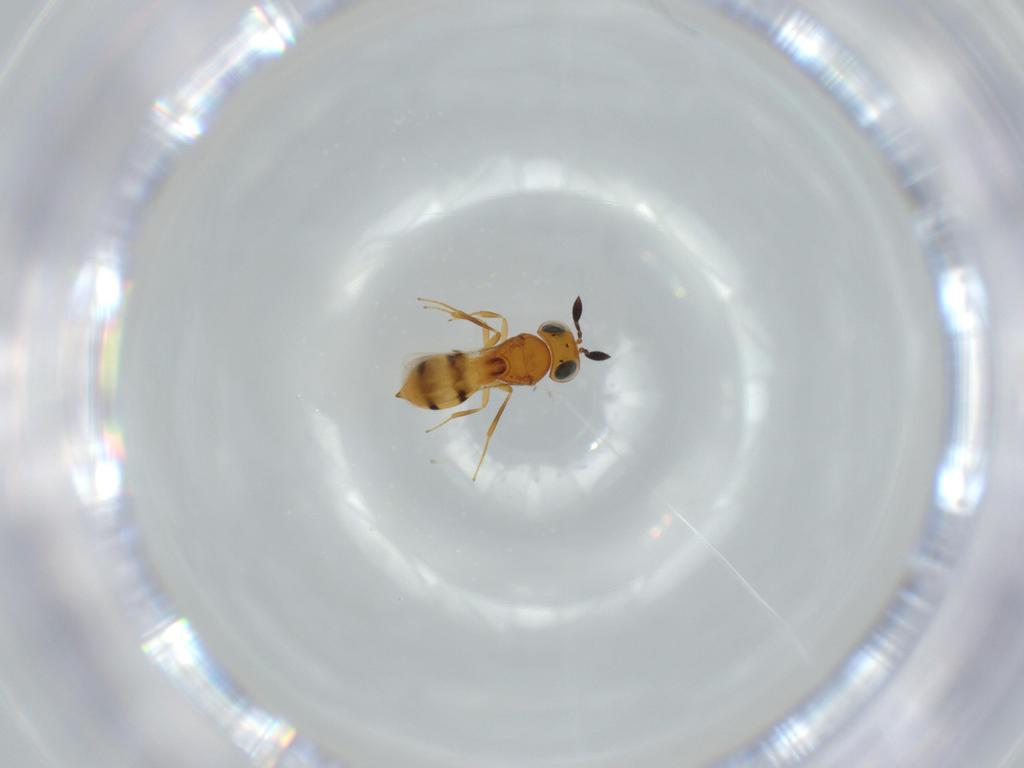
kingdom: Animalia
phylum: Arthropoda
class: Insecta
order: Hymenoptera
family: Scelionidae
